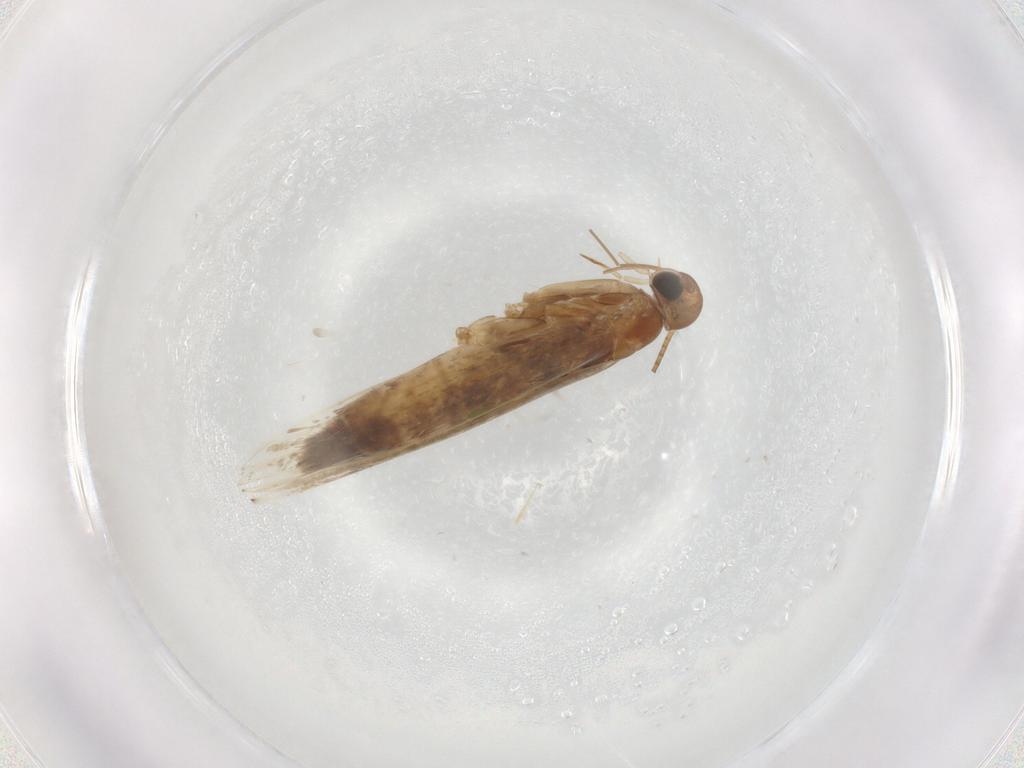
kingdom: Animalia
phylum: Arthropoda
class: Insecta
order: Lepidoptera
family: Gracillariidae
